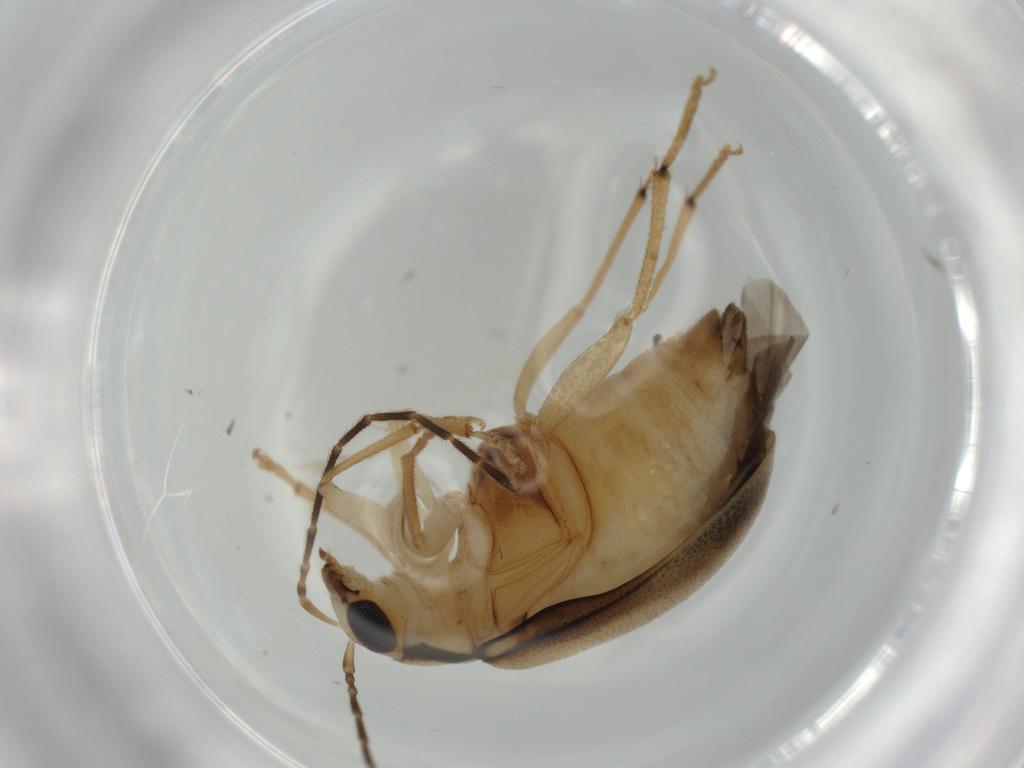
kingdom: Animalia
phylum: Arthropoda
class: Insecta
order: Coleoptera
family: Chrysomelidae
